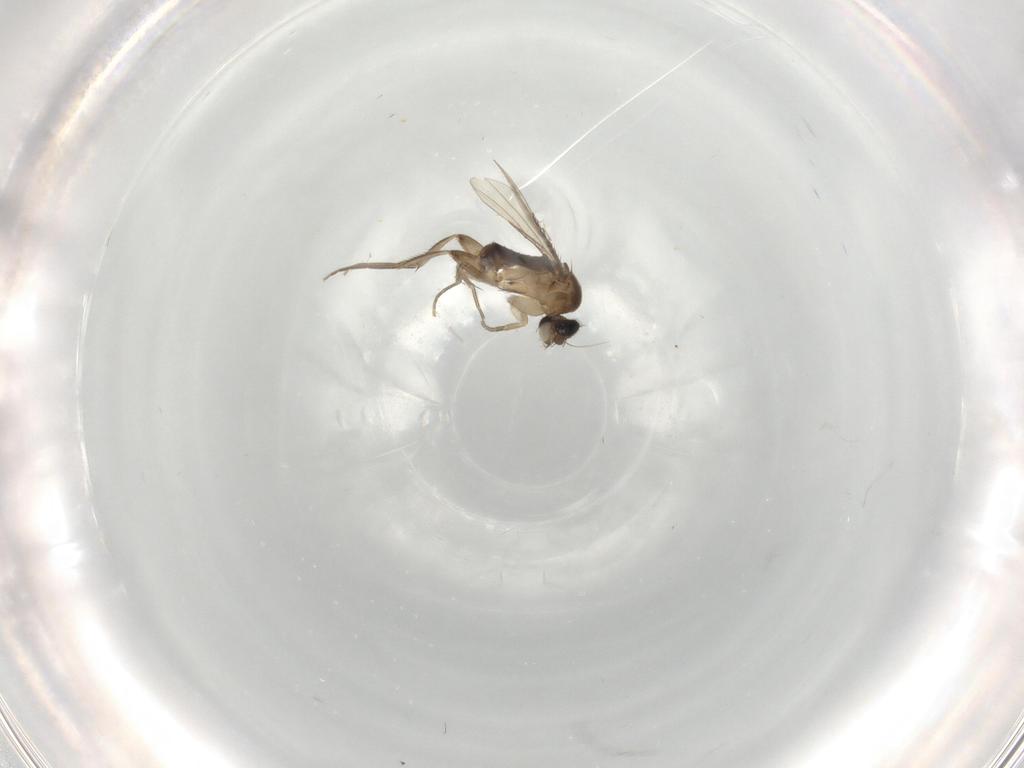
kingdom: Animalia
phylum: Arthropoda
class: Insecta
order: Diptera
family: Phoridae
